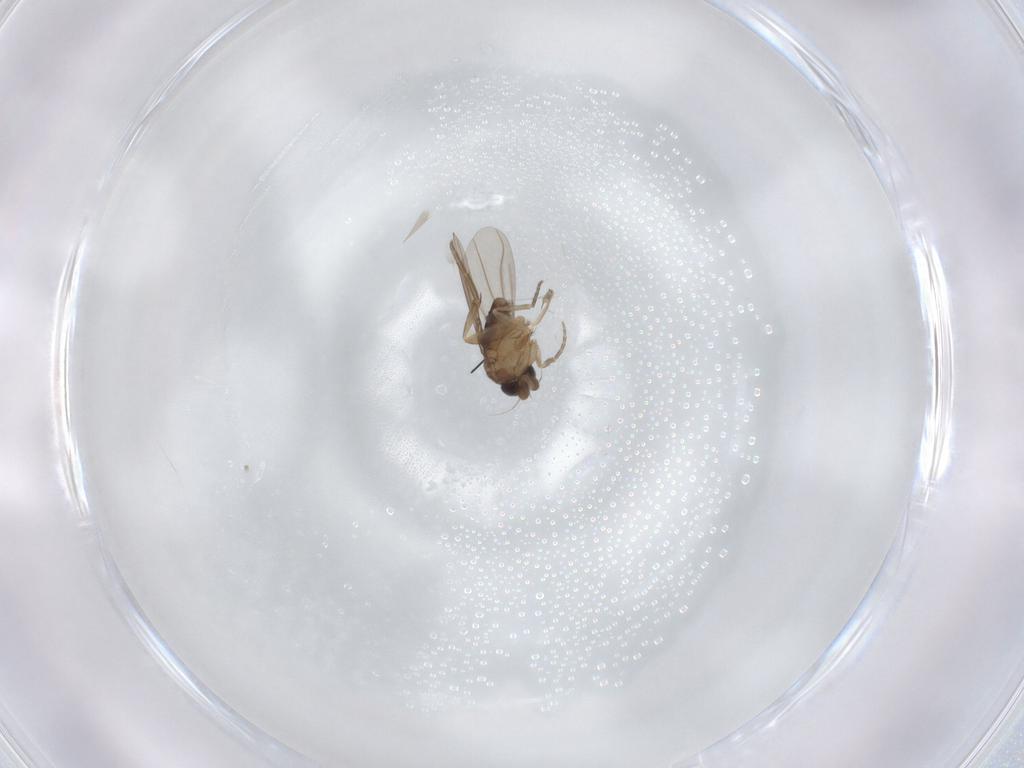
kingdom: Animalia
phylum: Arthropoda
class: Insecta
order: Diptera
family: Phoridae
